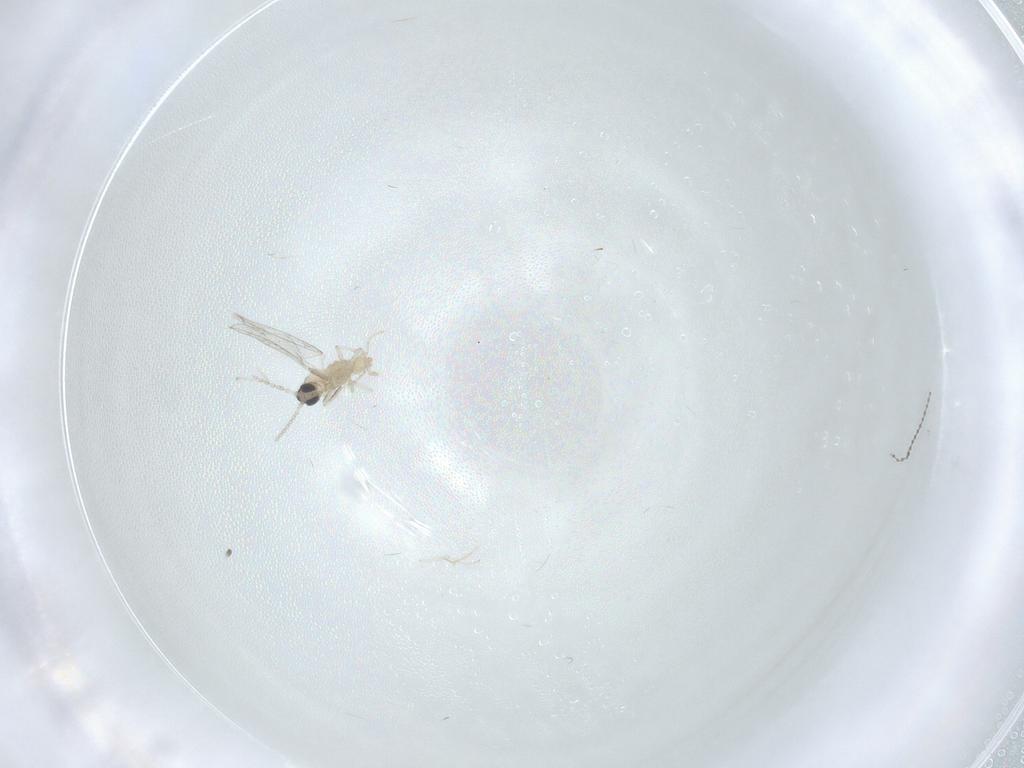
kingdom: Animalia
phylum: Arthropoda
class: Insecta
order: Diptera
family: Cecidomyiidae
